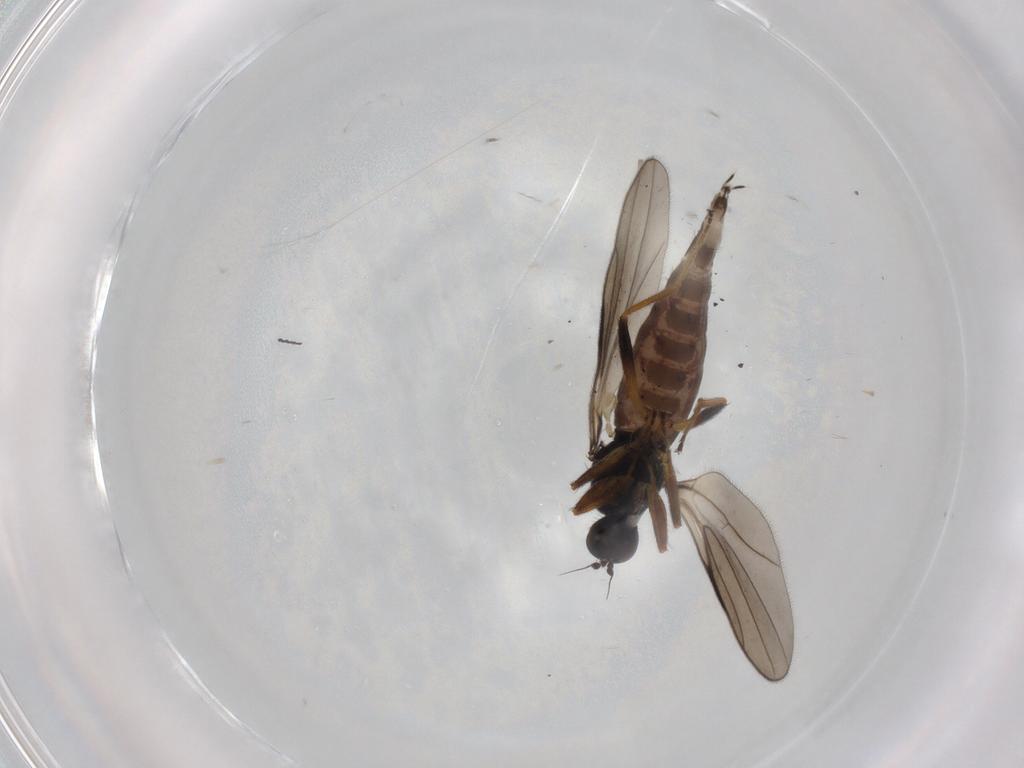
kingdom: Animalia
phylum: Arthropoda
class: Insecta
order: Diptera
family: Hybotidae
